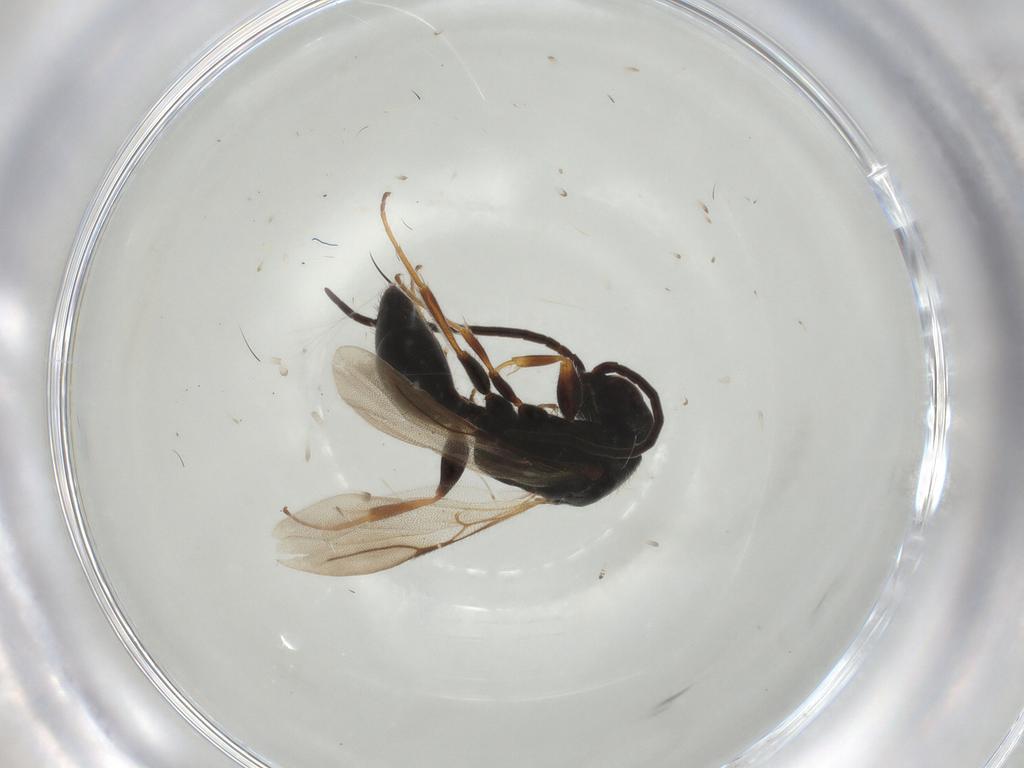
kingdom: Animalia
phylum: Arthropoda
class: Insecta
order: Hymenoptera
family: Bethylidae
